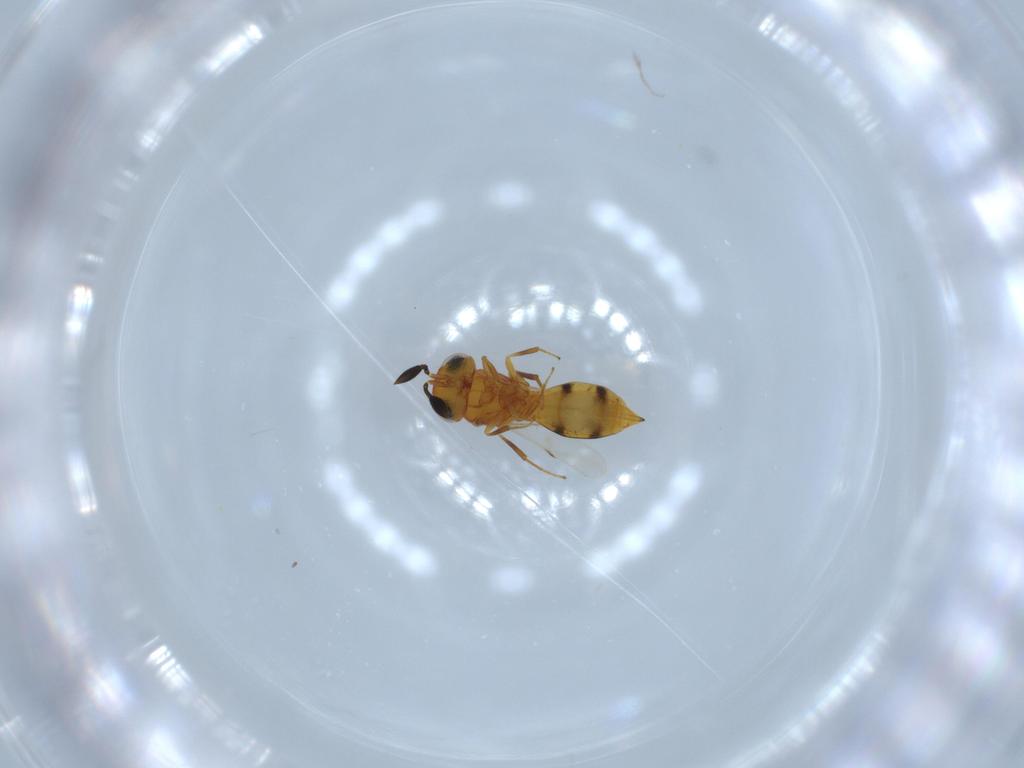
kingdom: Animalia
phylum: Arthropoda
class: Insecta
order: Hymenoptera
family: Scelionidae
